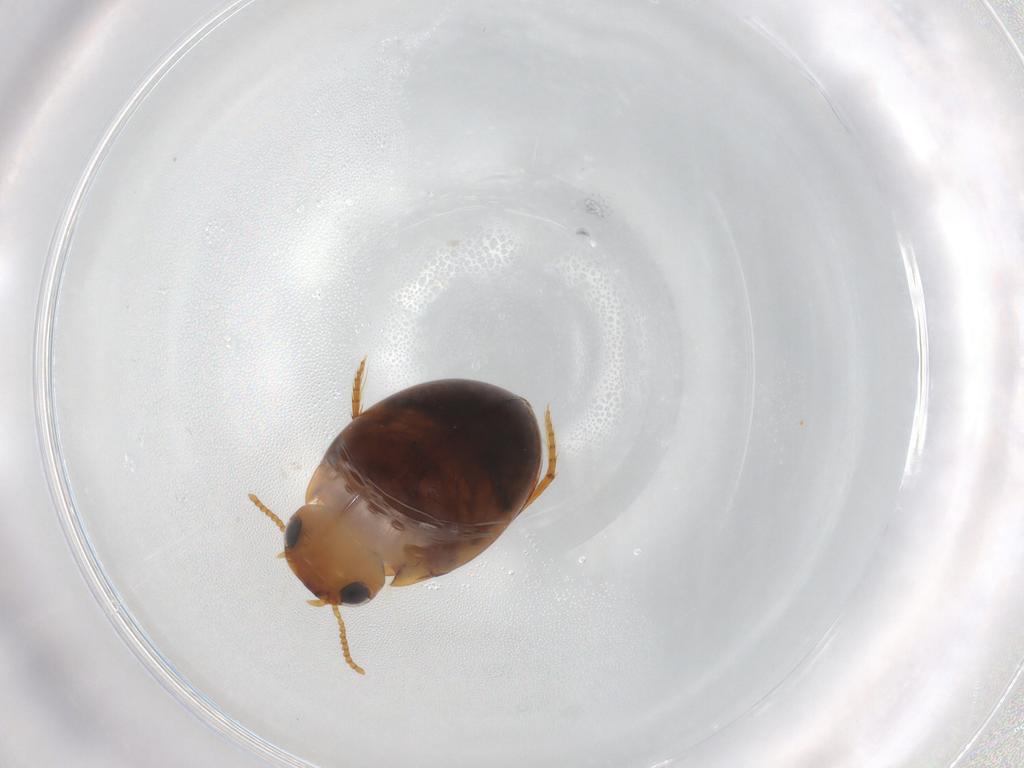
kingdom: Animalia
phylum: Arthropoda
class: Insecta
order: Coleoptera
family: Dytiscidae
